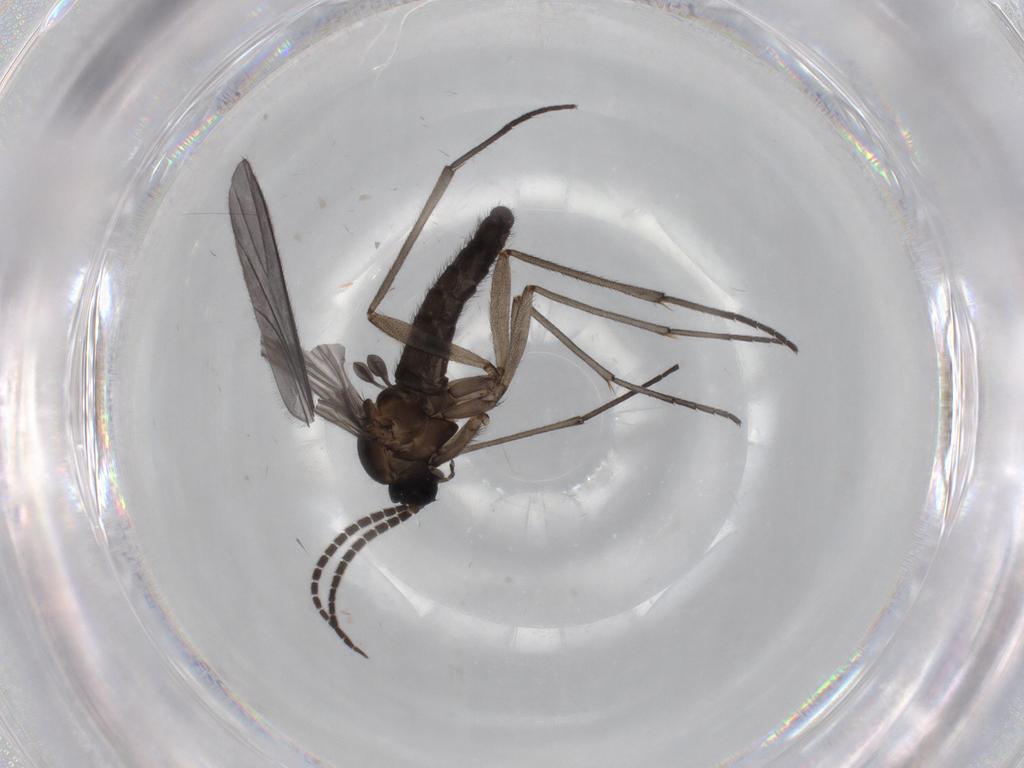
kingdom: Animalia
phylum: Arthropoda
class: Insecta
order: Diptera
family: Sciaridae
